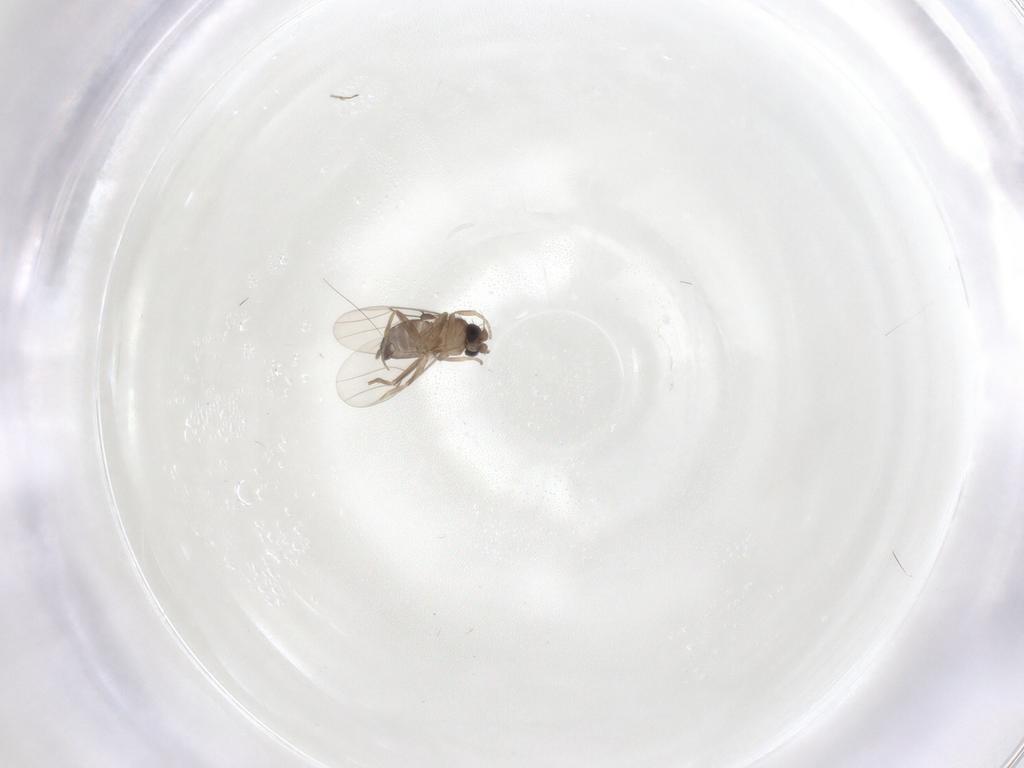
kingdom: Animalia
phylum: Arthropoda
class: Insecta
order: Diptera
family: Phoridae
